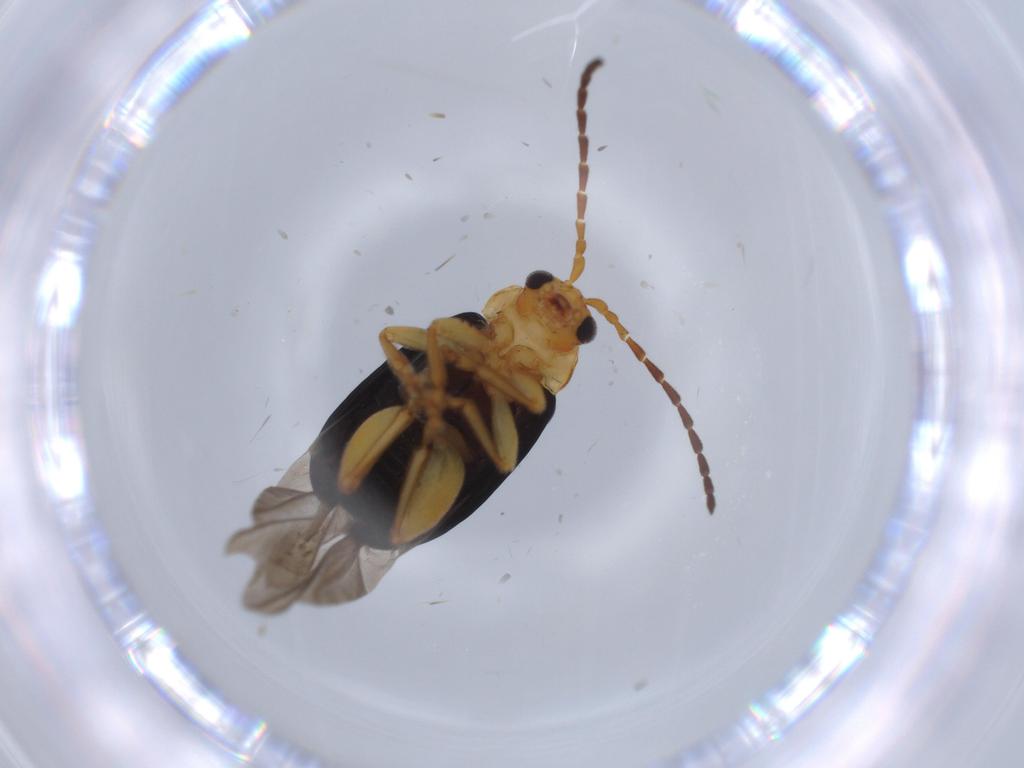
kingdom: Animalia
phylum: Arthropoda
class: Insecta
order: Coleoptera
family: Chrysomelidae
